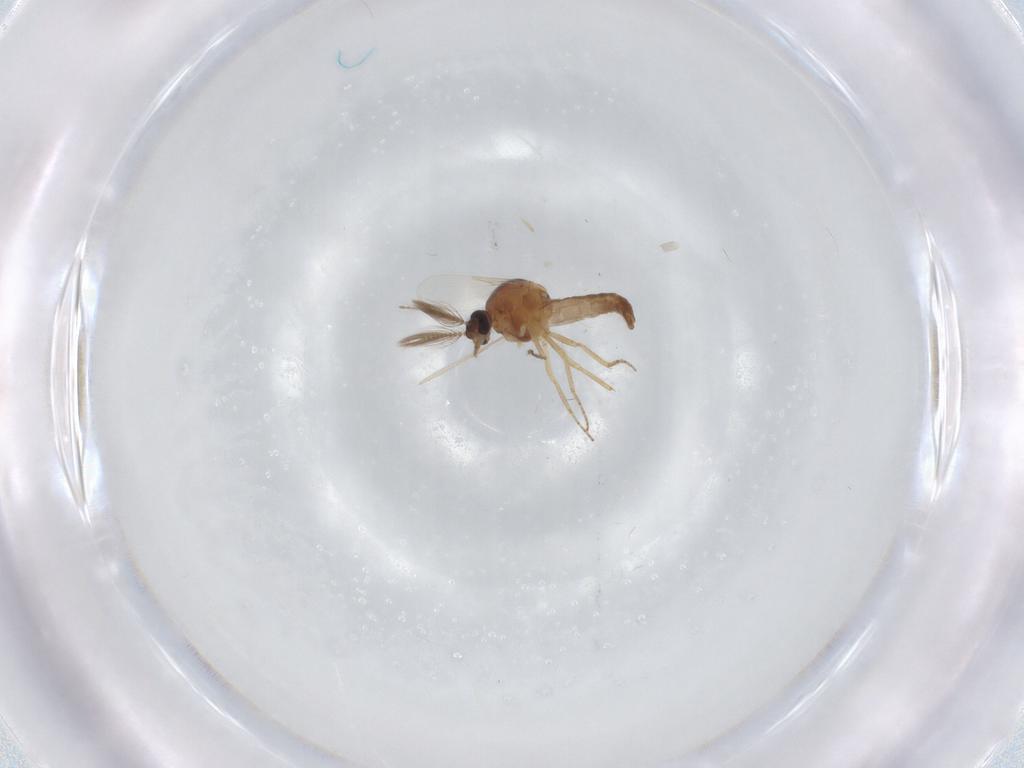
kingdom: Animalia
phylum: Arthropoda
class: Insecta
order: Diptera
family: Ceratopogonidae
